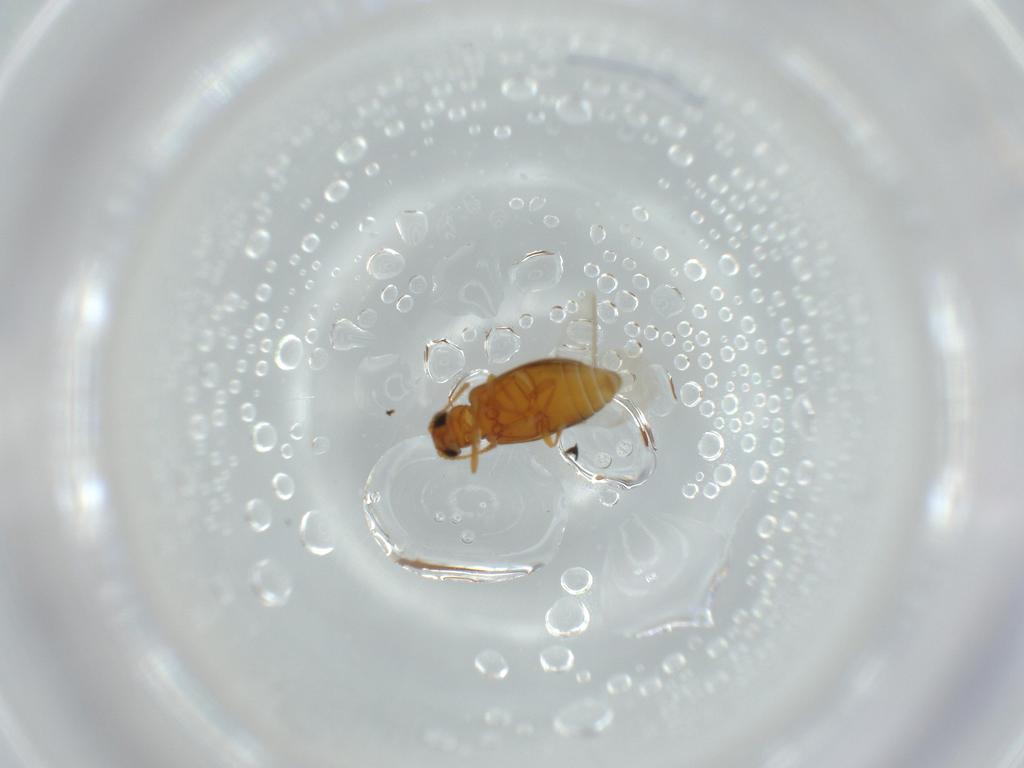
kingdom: Animalia
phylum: Arthropoda
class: Insecta
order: Coleoptera
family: Aderidae
